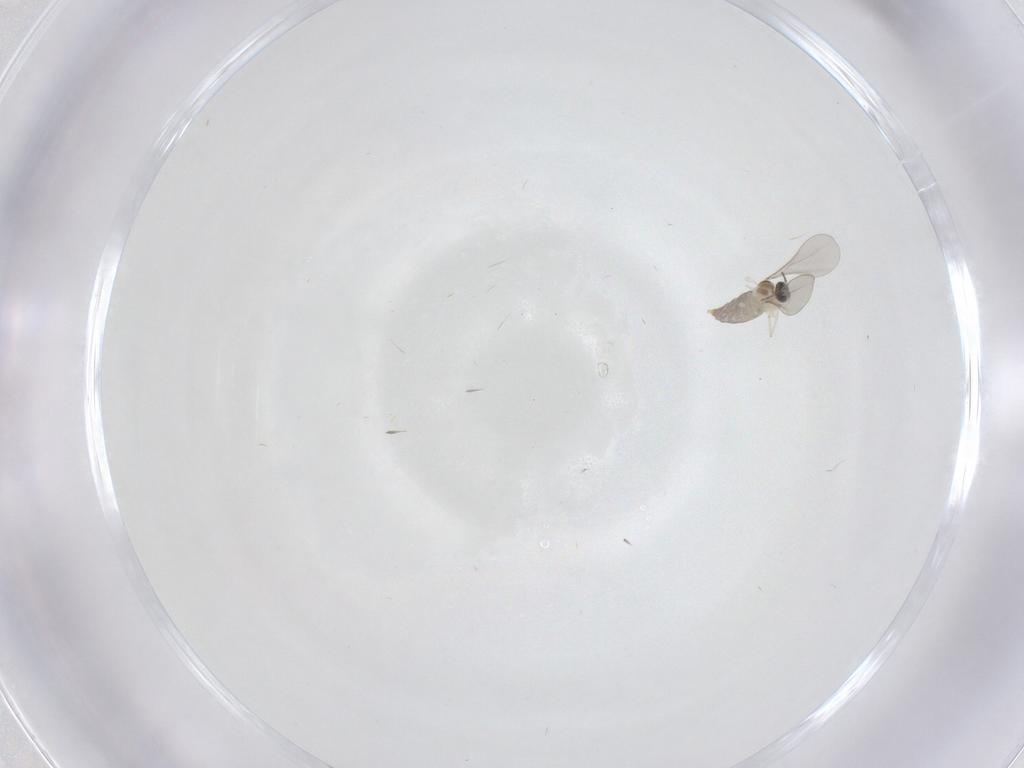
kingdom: Animalia
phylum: Arthropoda
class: Insecta
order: Diptera
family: Cecidomyiidae
